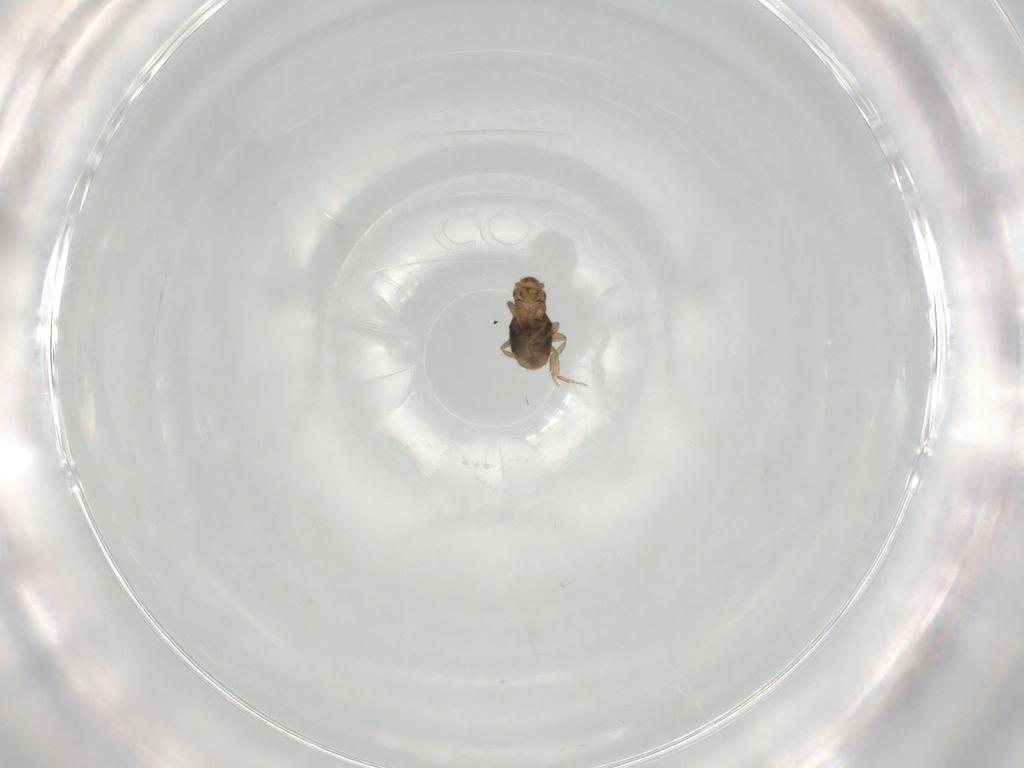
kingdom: Animalia
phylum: Arthropoda
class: Insecta
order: Diptera
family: Phoridae
